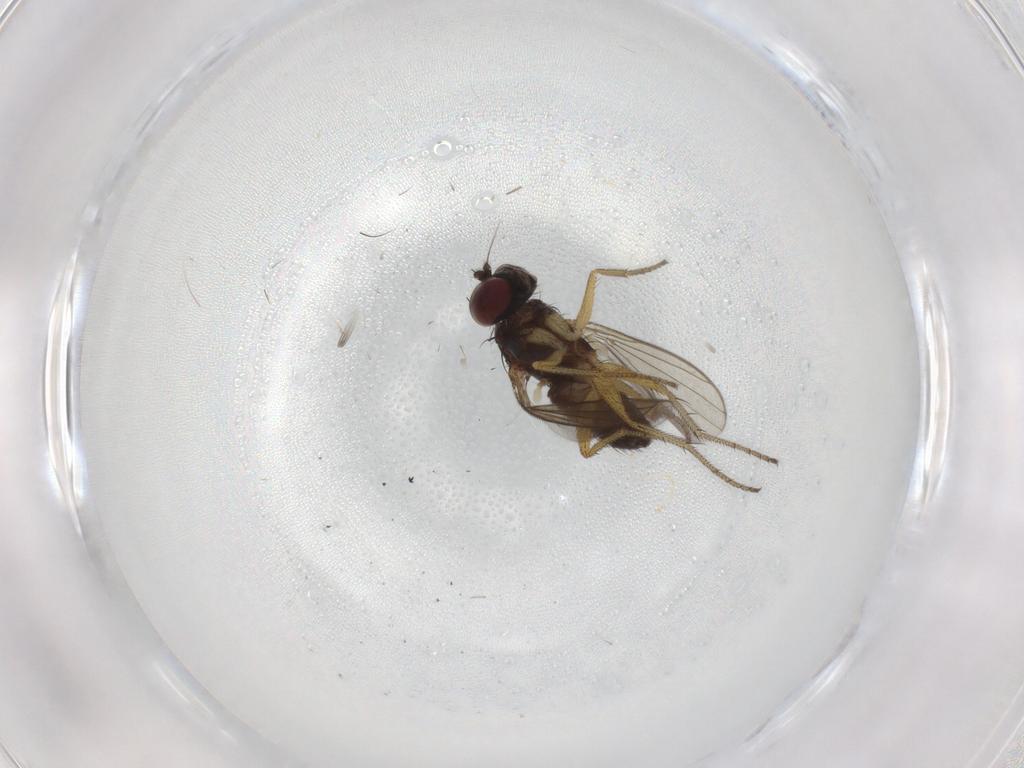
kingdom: Animalia
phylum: Arthropoda
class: Insecta
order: Diptera
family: Dolichopodidae
